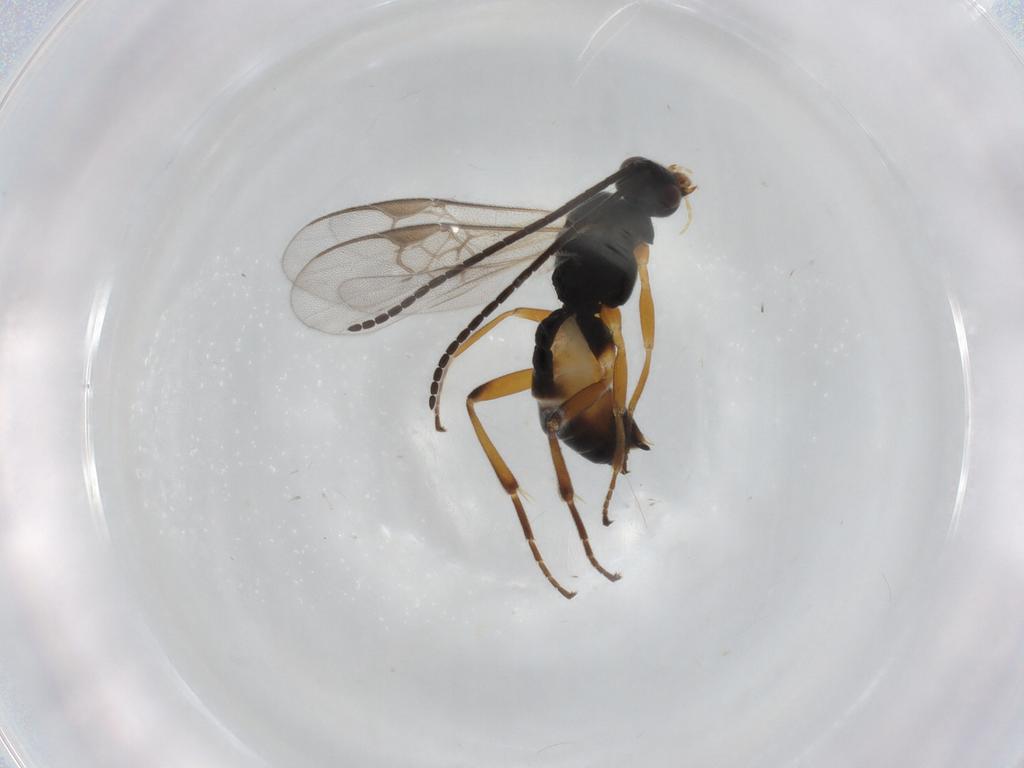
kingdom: Animalia
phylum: Arthropoda
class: Insecta
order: Hymenoptera
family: Braconidae
